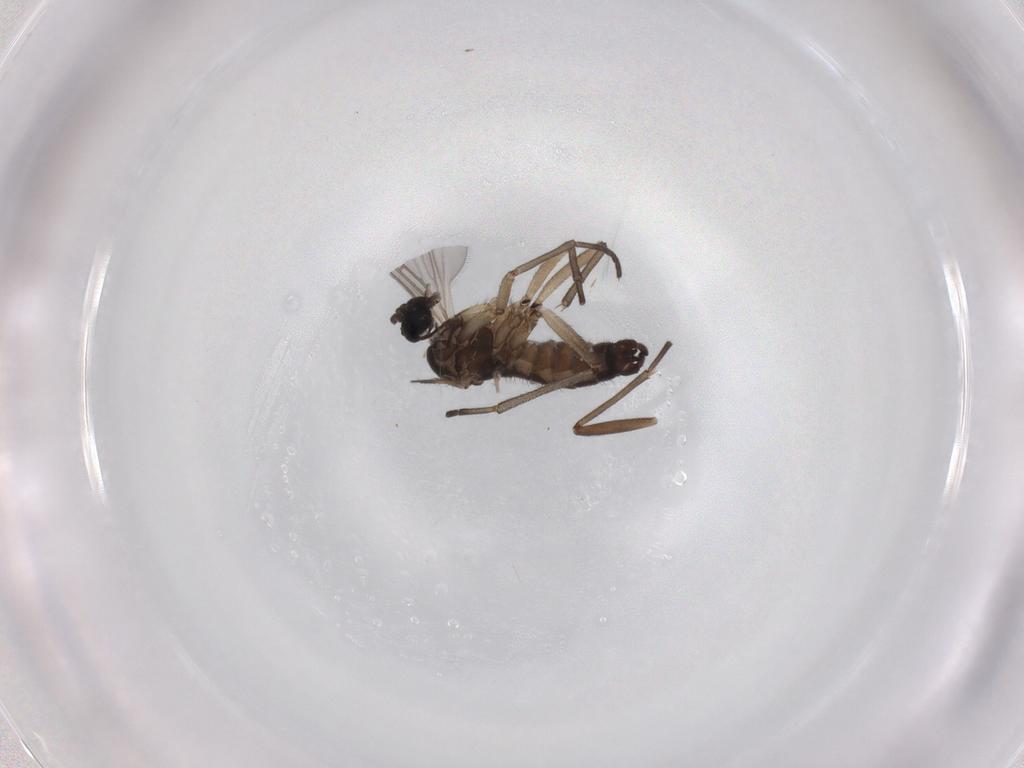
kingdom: Animalia
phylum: Arthropoda
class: Insecta
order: Diptera
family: Sciaridae
